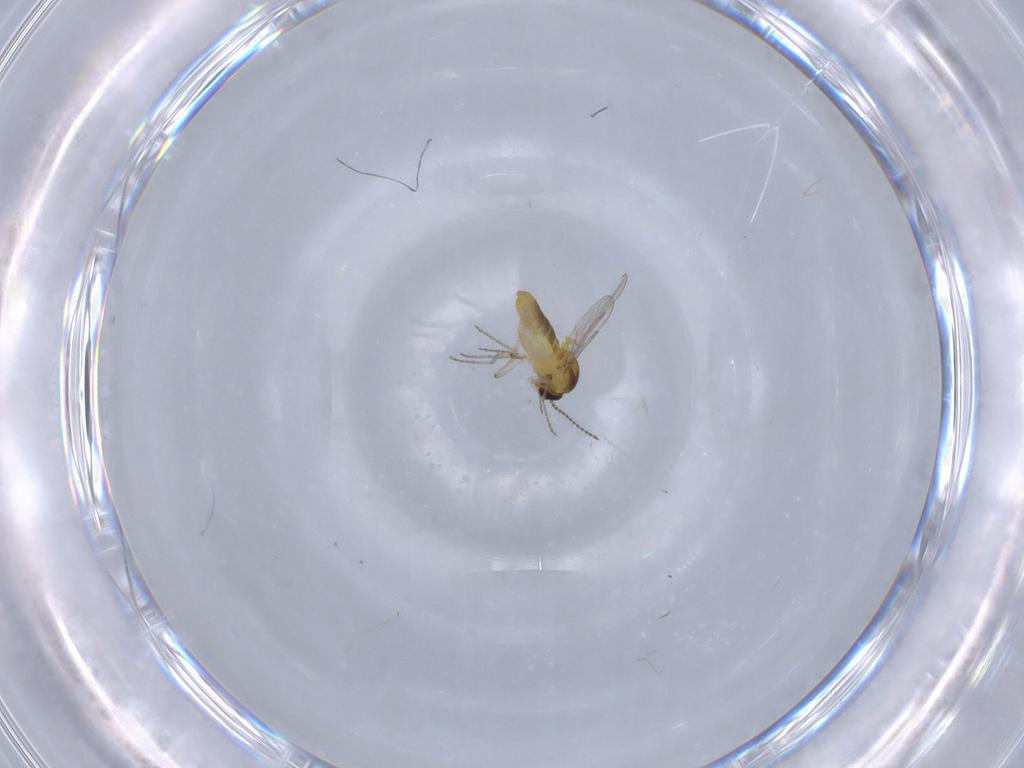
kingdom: Animalia
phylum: Arthropoda
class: Insecta
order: Diptera
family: Cecidomyiidae
